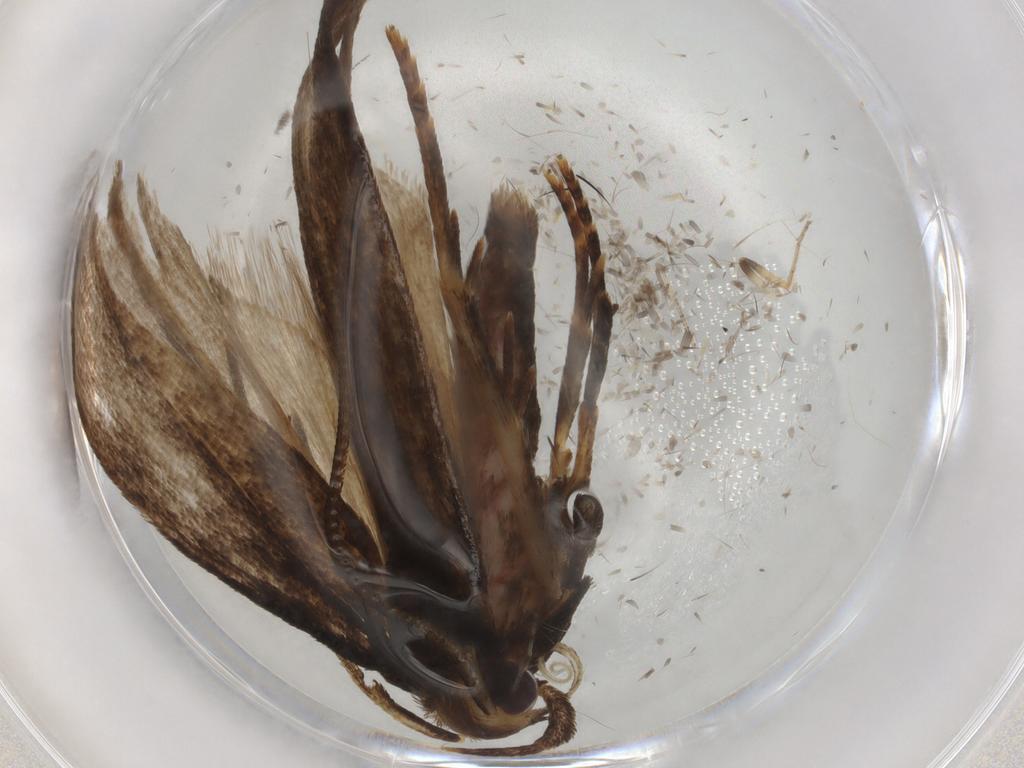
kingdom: Animalia
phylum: Arthropoda
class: Insecta
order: Lepidoptera
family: Autostichidae
